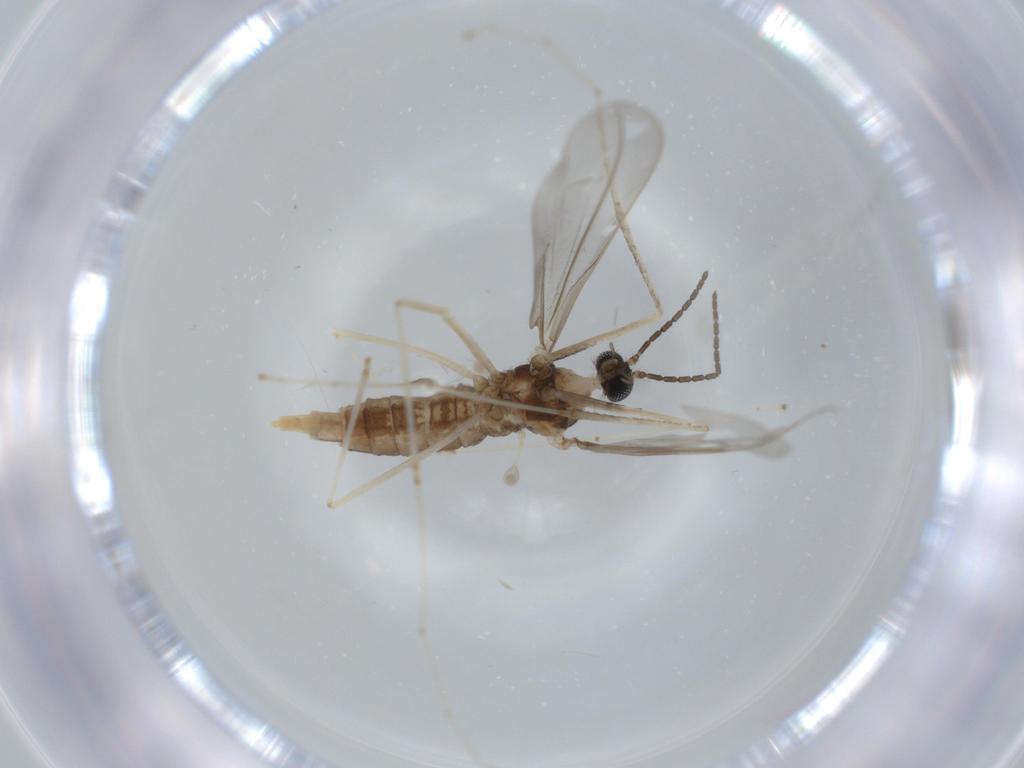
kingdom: Animalia
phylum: Arthropoda
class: Insecta
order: Diptera
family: Cecidomyiidae
